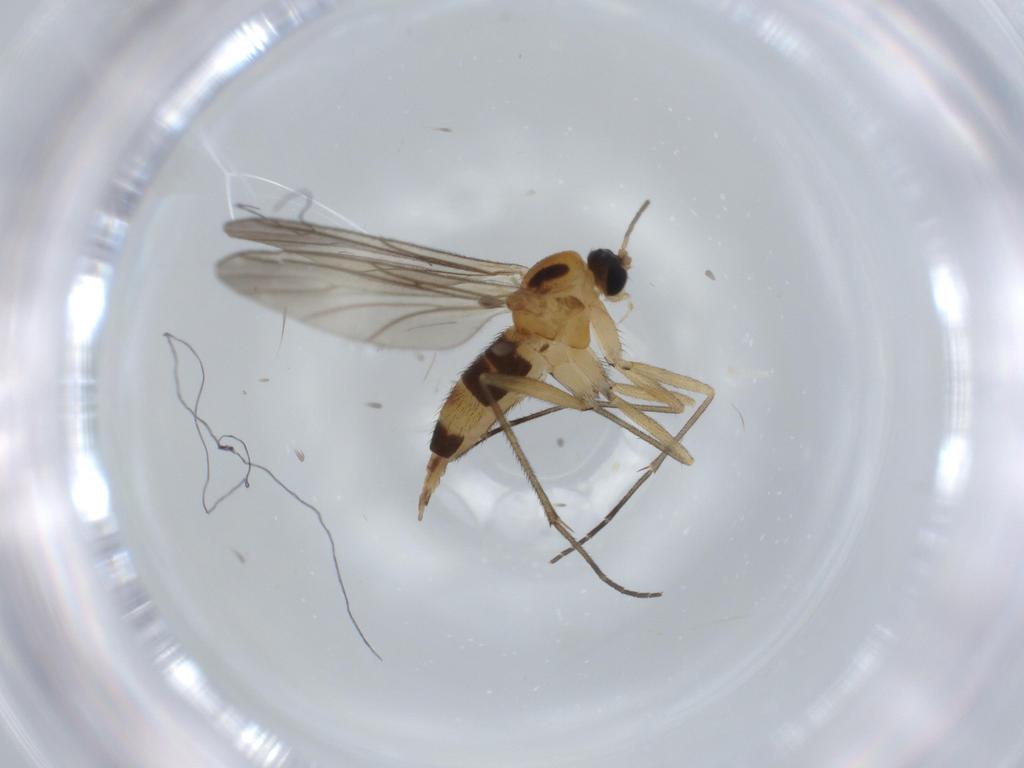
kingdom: Animalia
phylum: Arthropoda
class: Insecta
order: Diptera
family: Sciaridae
